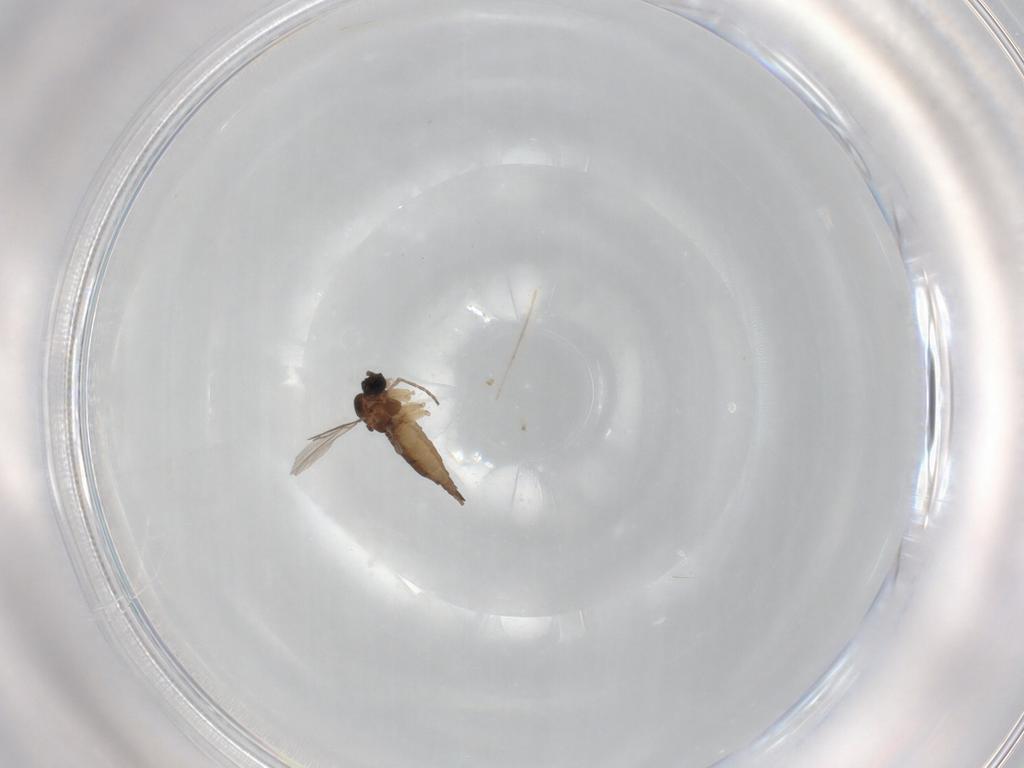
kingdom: Animalia
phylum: Arthropoda
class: Insecta
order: Diptera
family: Sciaridae
